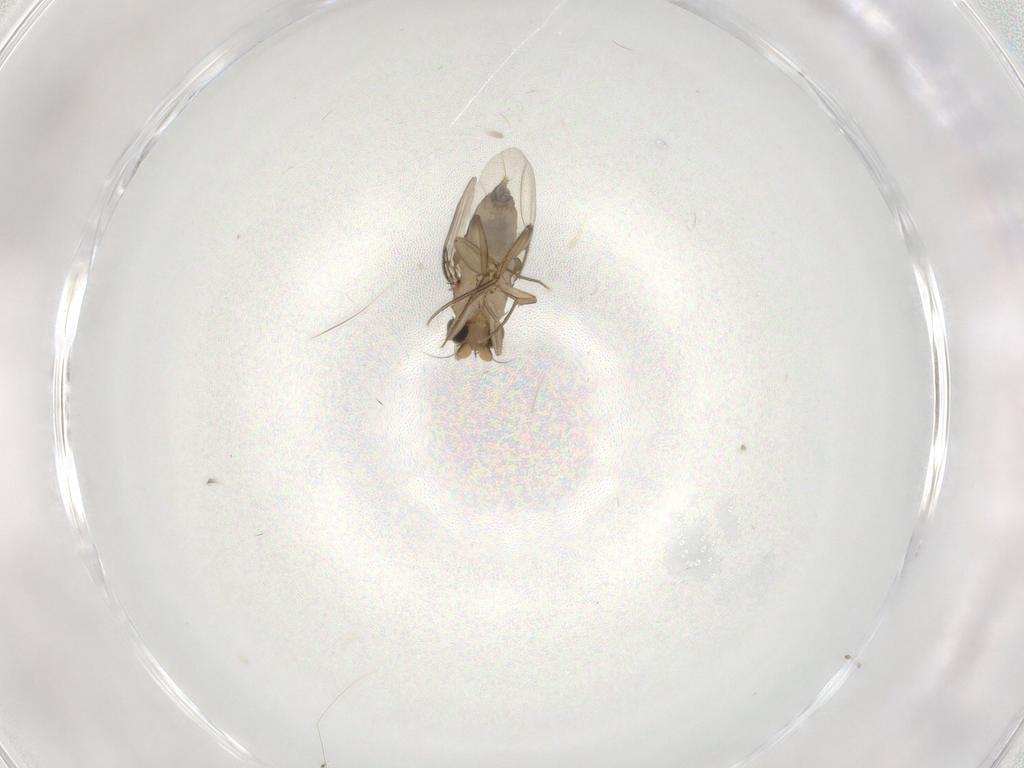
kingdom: Animalia
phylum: Arthropoda
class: Insecta
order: Diptera
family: Phoridae
